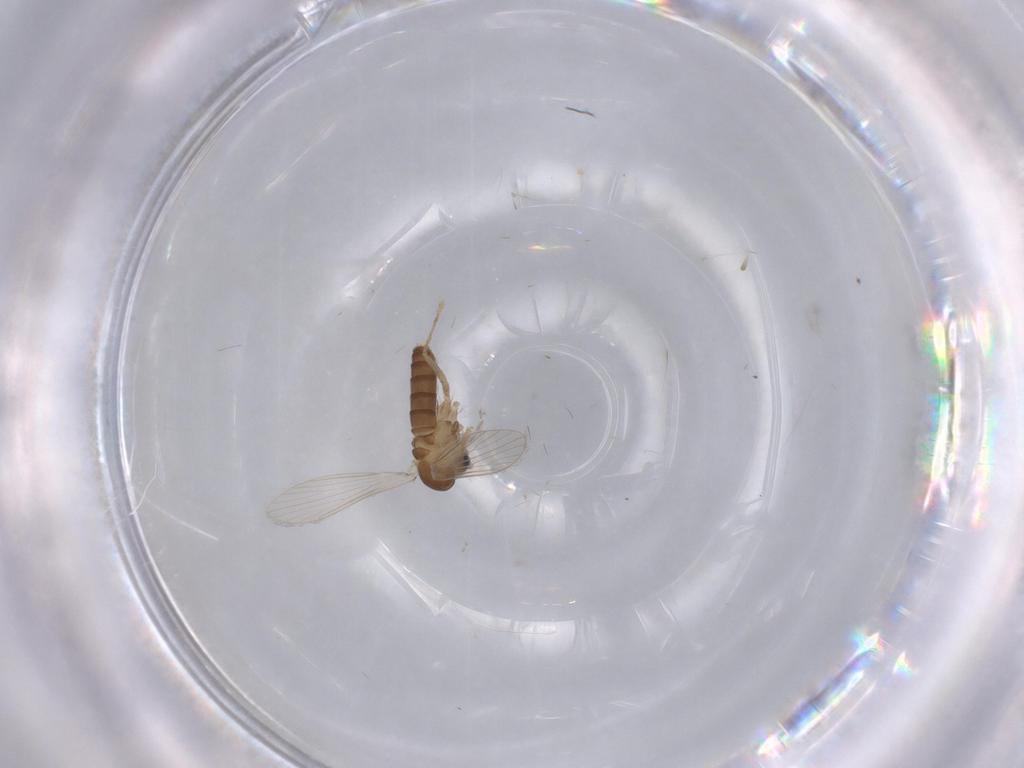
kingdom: Animalia
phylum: Arthropoda
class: Insecta
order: Diptera
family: Psychodidae
